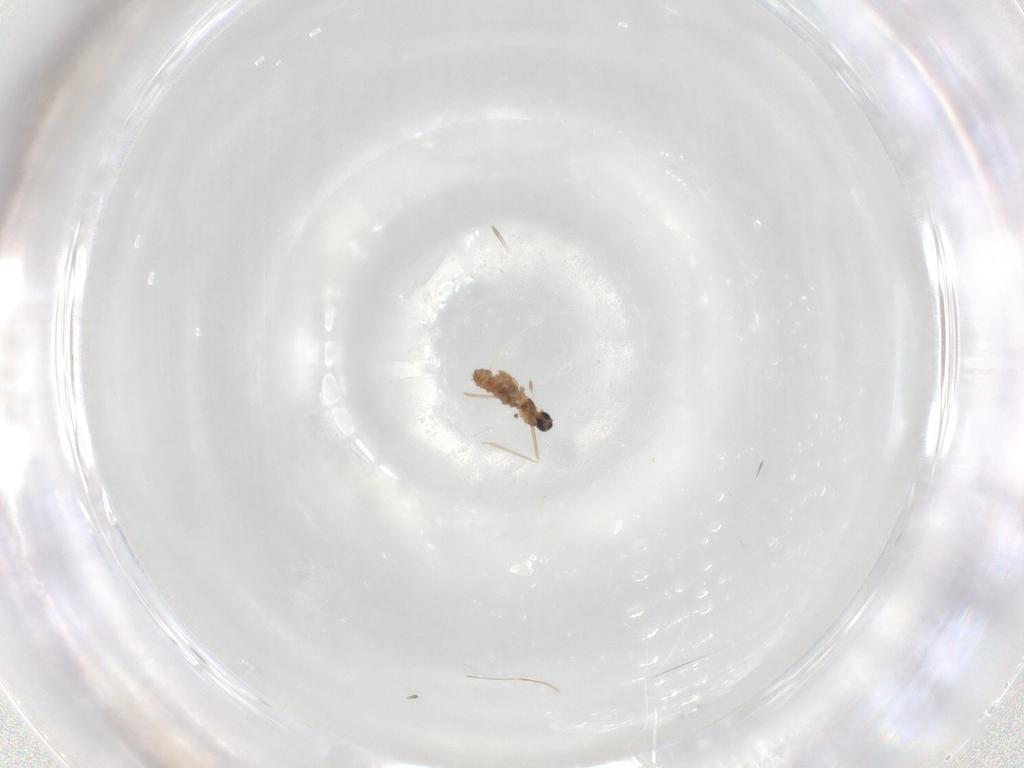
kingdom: Animalia
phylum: Arthropoda
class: Insecta
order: Diptera
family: Cecidomyiidae
